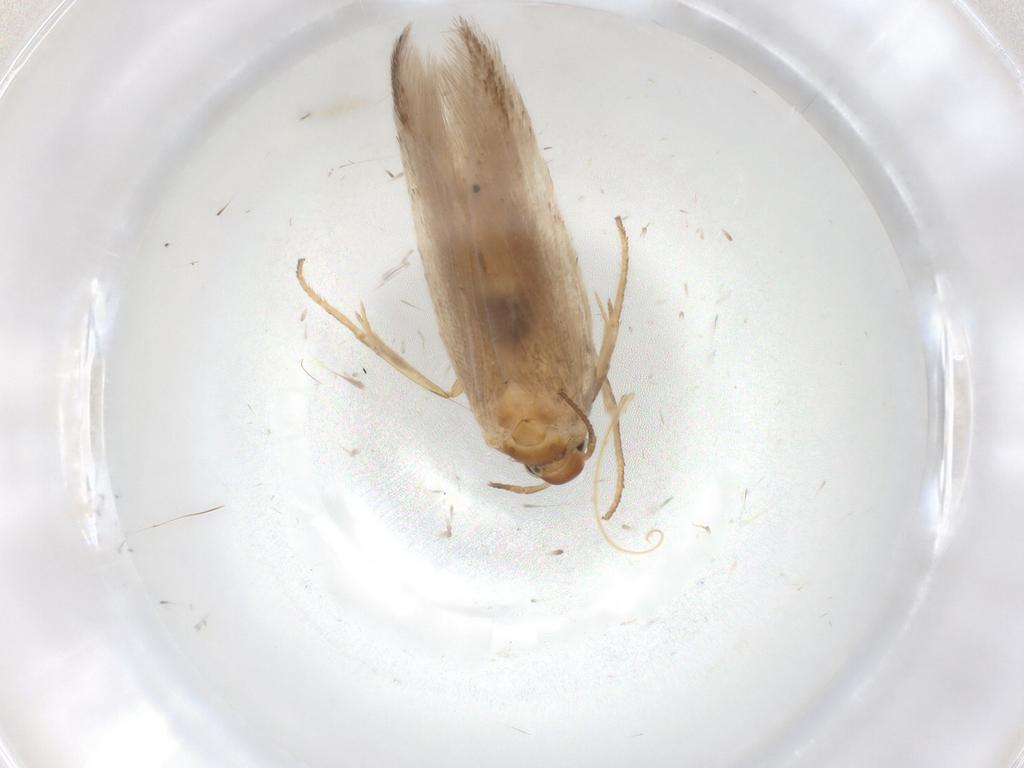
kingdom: Animalia
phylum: Arthropoda
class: Insecta
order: Lepidoptera
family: Gelechiidae
